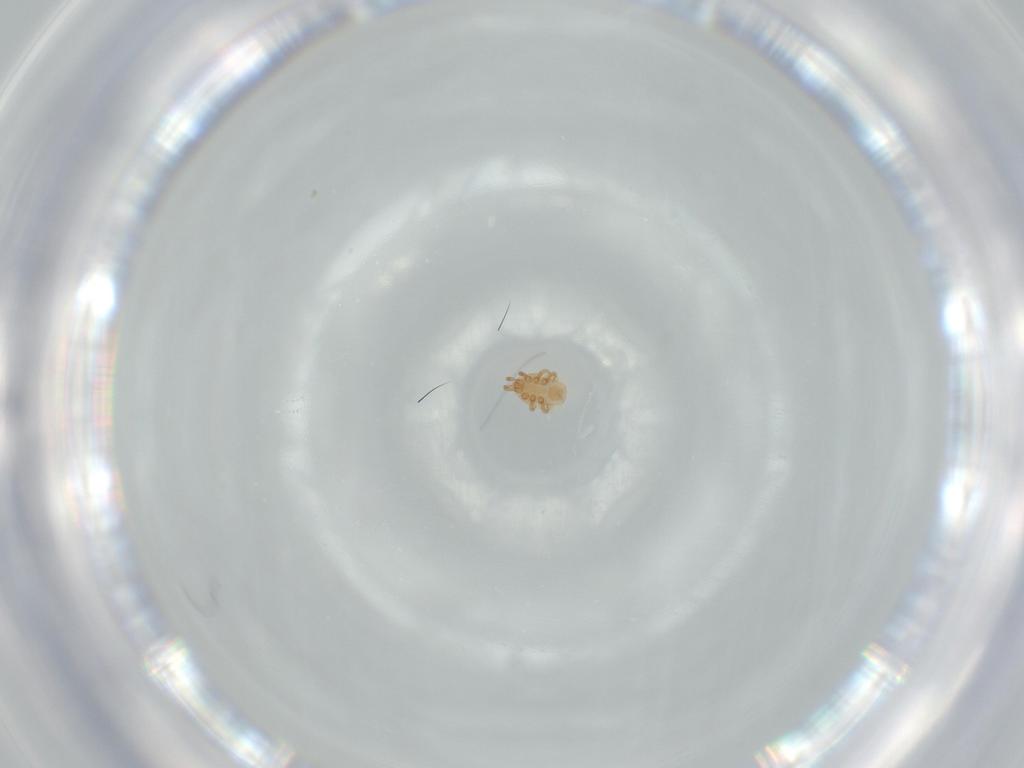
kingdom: Animalia
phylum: Arthropoda
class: Arachnida
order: Mesostigmata
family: Dinychidae
